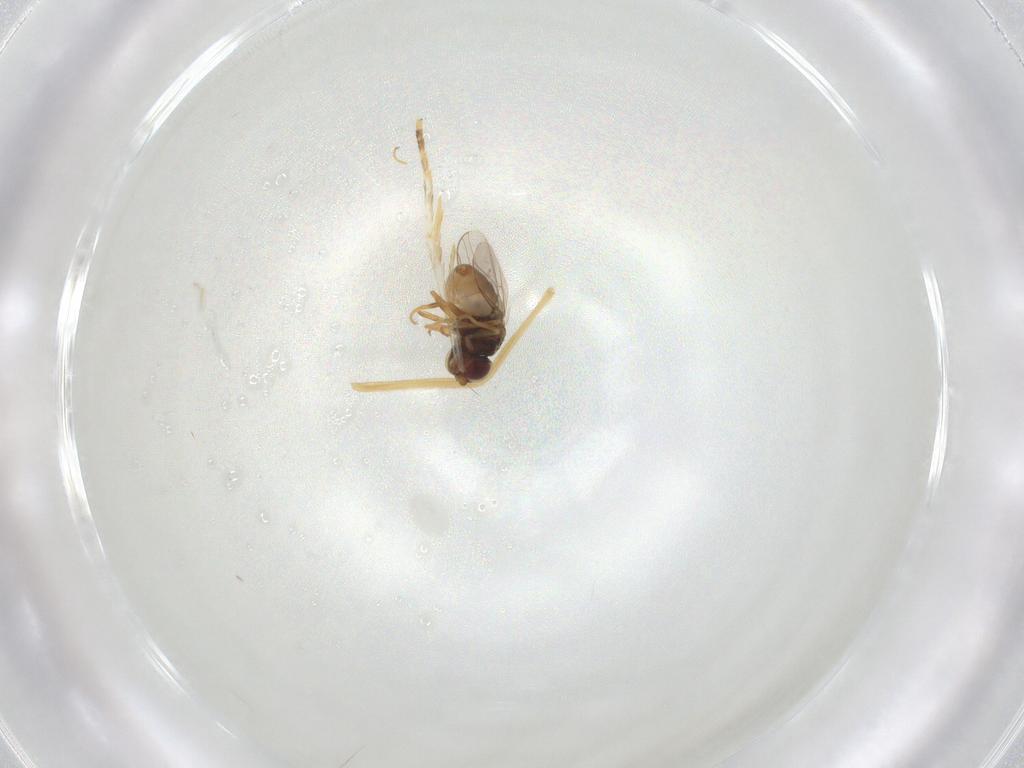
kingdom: Animalia
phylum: Arthropoda
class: Insecta
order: Diptera
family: Chloropidae
